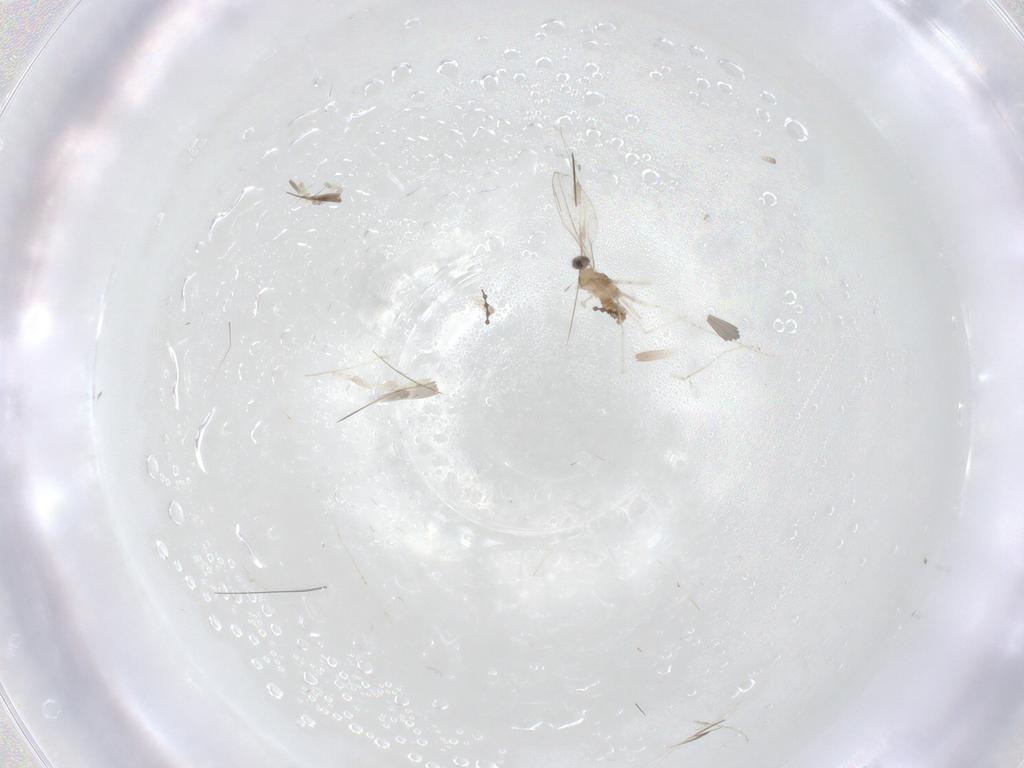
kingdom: Animalia
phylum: Arthropoda
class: Insecta
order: Diptera
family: Cecidomyiidae
